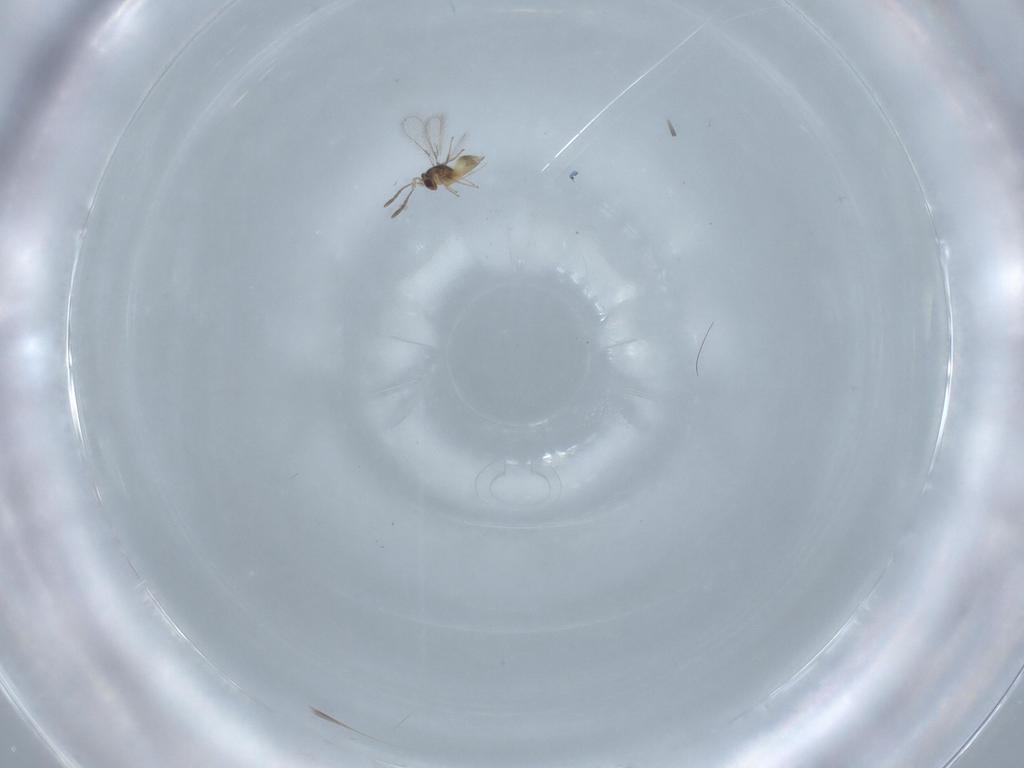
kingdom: Animalia
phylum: Arthropoda
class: Insecta
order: Hymenoptera
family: Mymaridae
